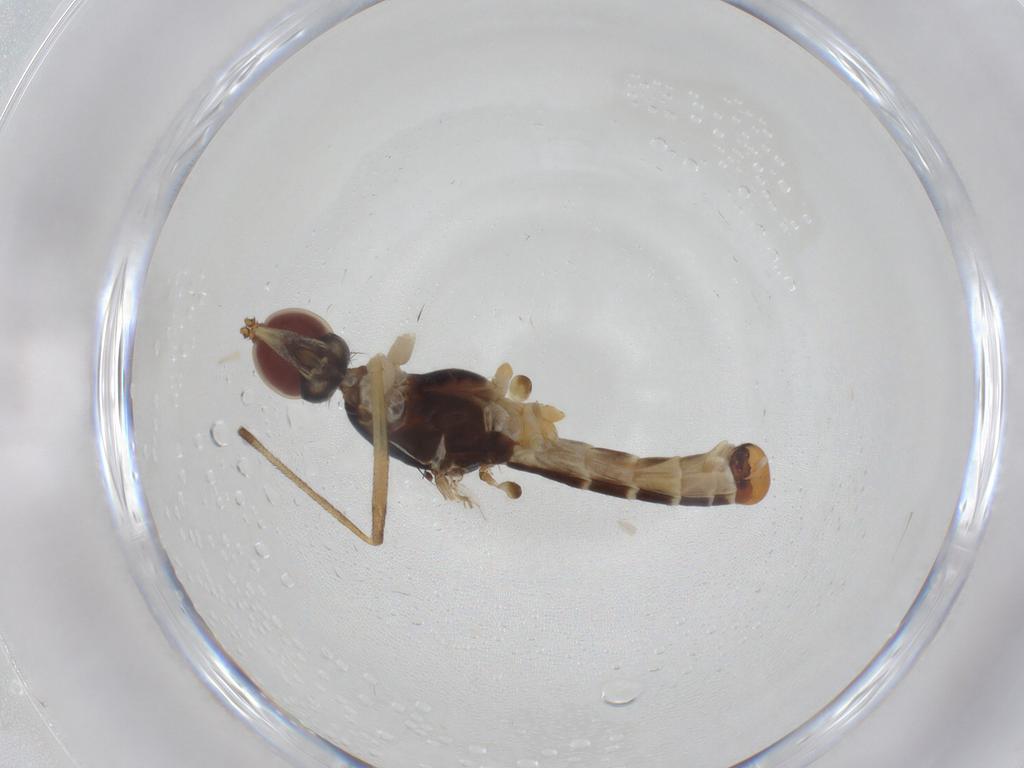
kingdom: Animalia
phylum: Arthropoda
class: Insecta
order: Diptera
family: Micropezidae
